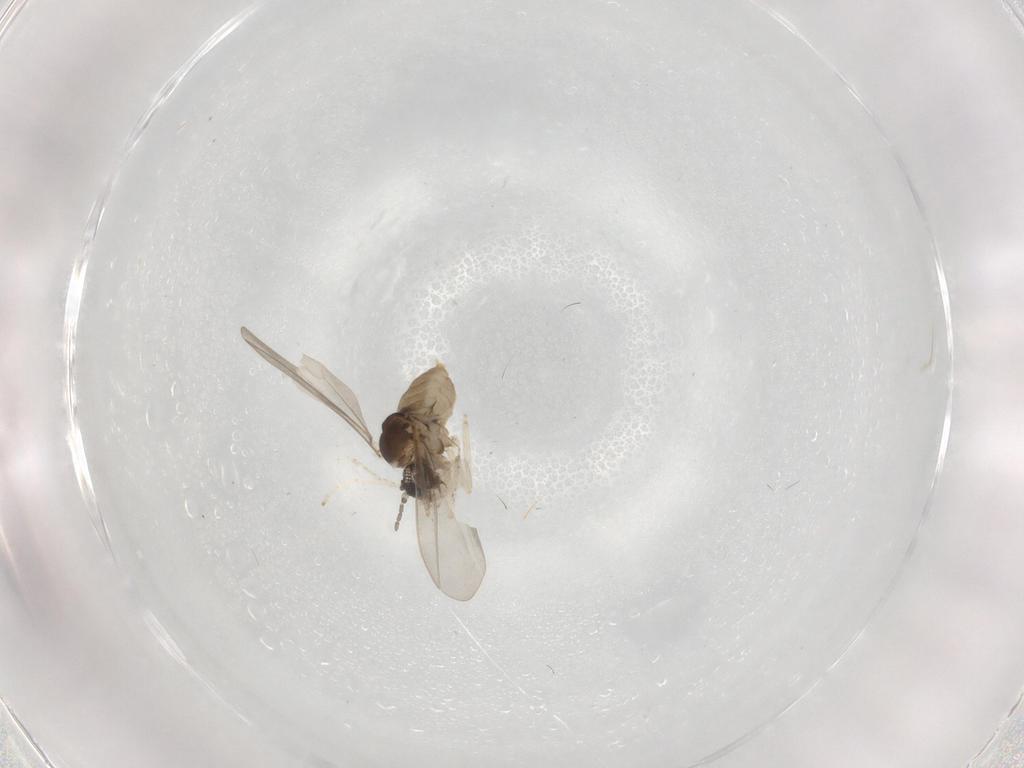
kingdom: Animalia
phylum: Arthropoda
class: Insecta
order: Diptera
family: Cecidomyiidae
